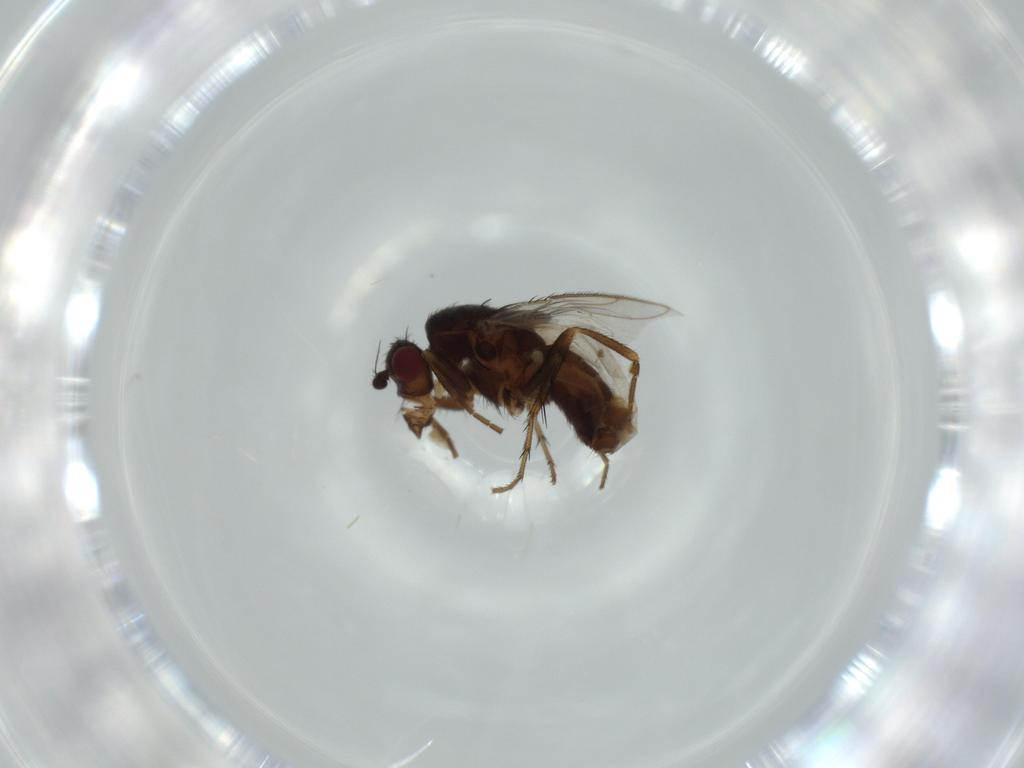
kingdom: Animalia
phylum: Arthropoda
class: Insecta
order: Diptera
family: Sphaeroceridae
